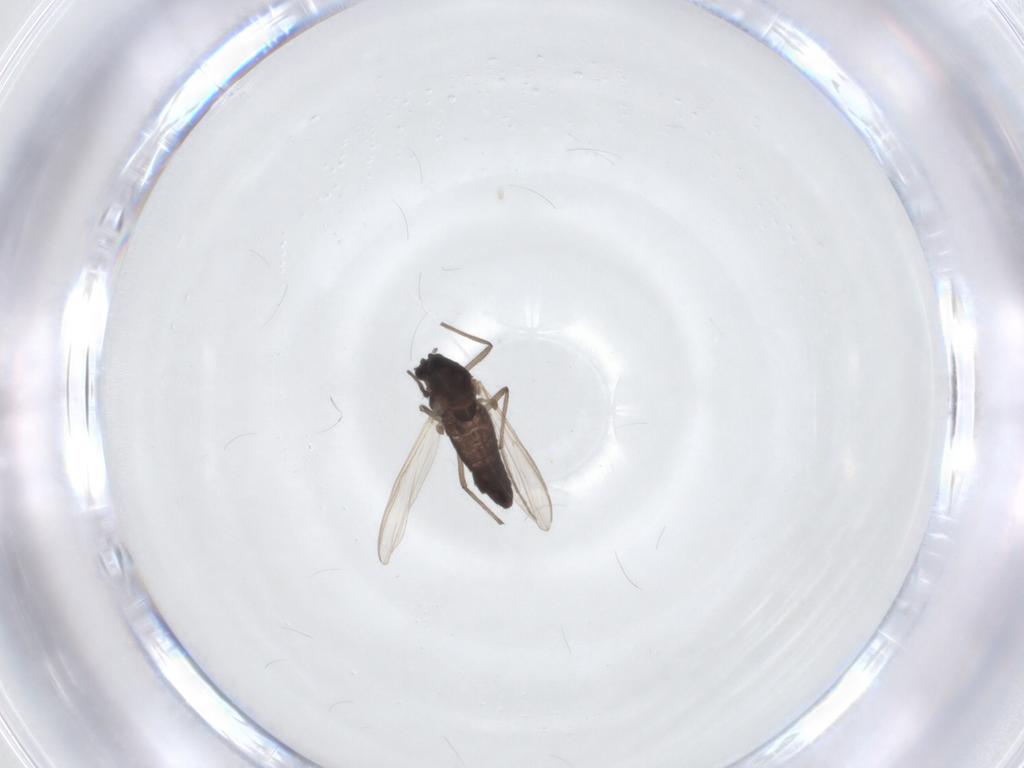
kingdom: Animalia
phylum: Arthropoda
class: Insecta
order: Diptera
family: Chironomidae
